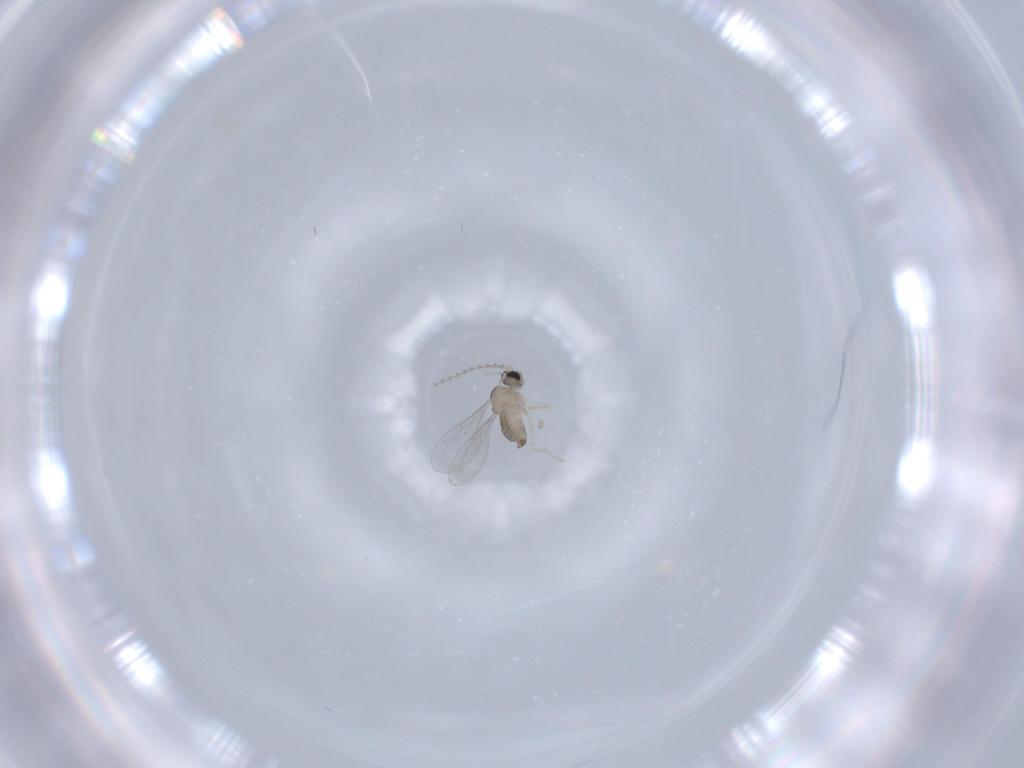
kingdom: Animalia
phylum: Arthropoda
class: Insecta
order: Diptera
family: Cecidomyiidae
